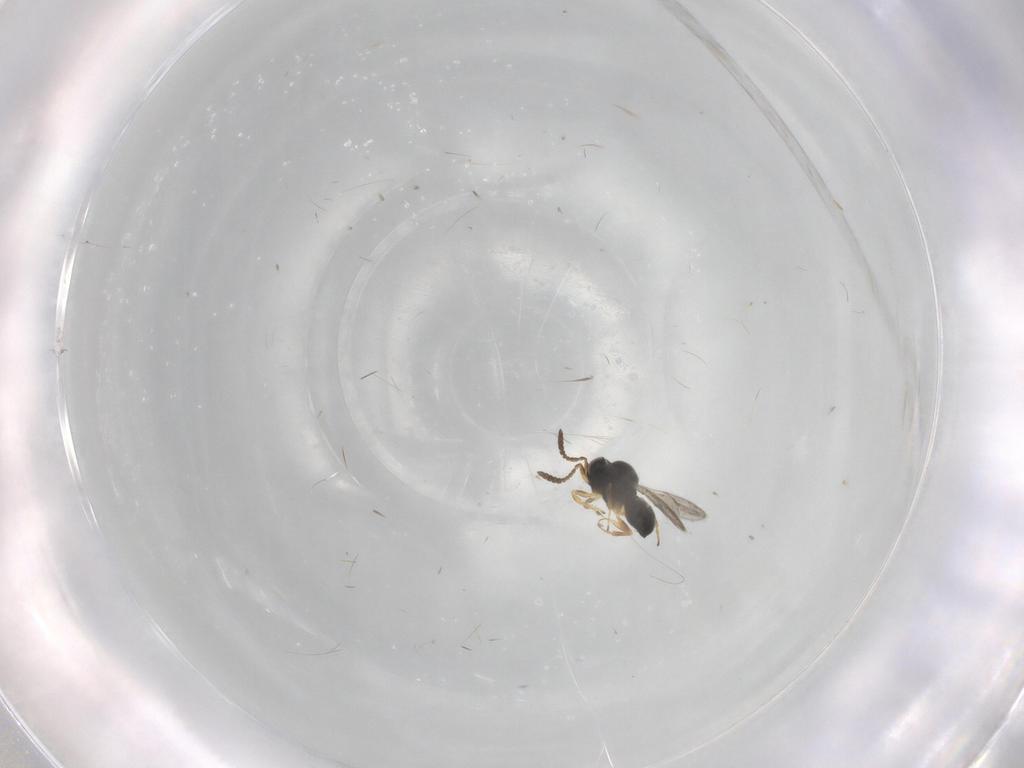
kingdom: Animalia
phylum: Arthropoda
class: Insecta
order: Hymenoptera
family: Scelionidae
